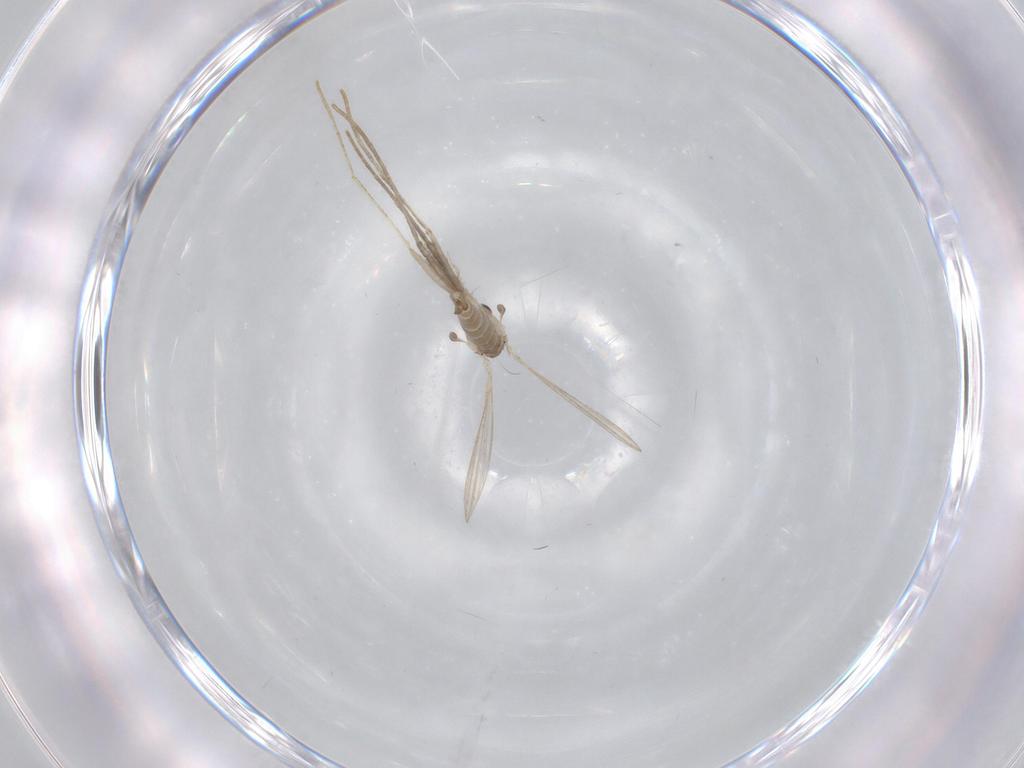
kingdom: Animalia
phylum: Arthropoda
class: Insecta
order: Diptera
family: Psychodidae
